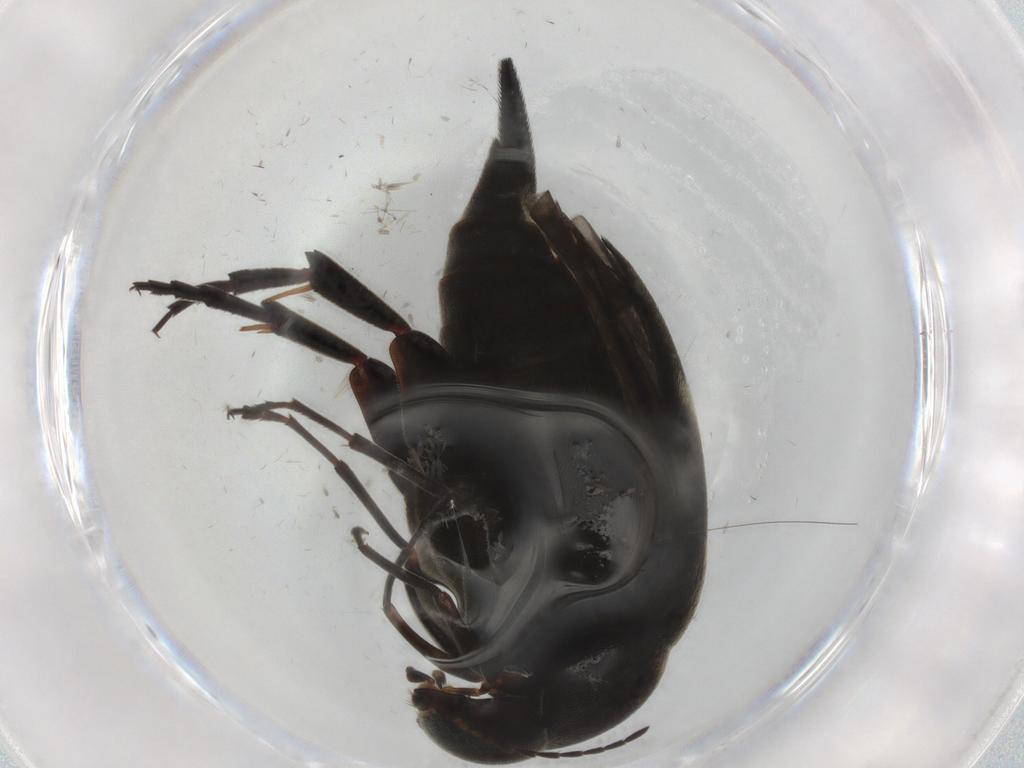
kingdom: Animalia
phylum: Arthropoda
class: Insecta
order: Coleoptera
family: Mordellidae
